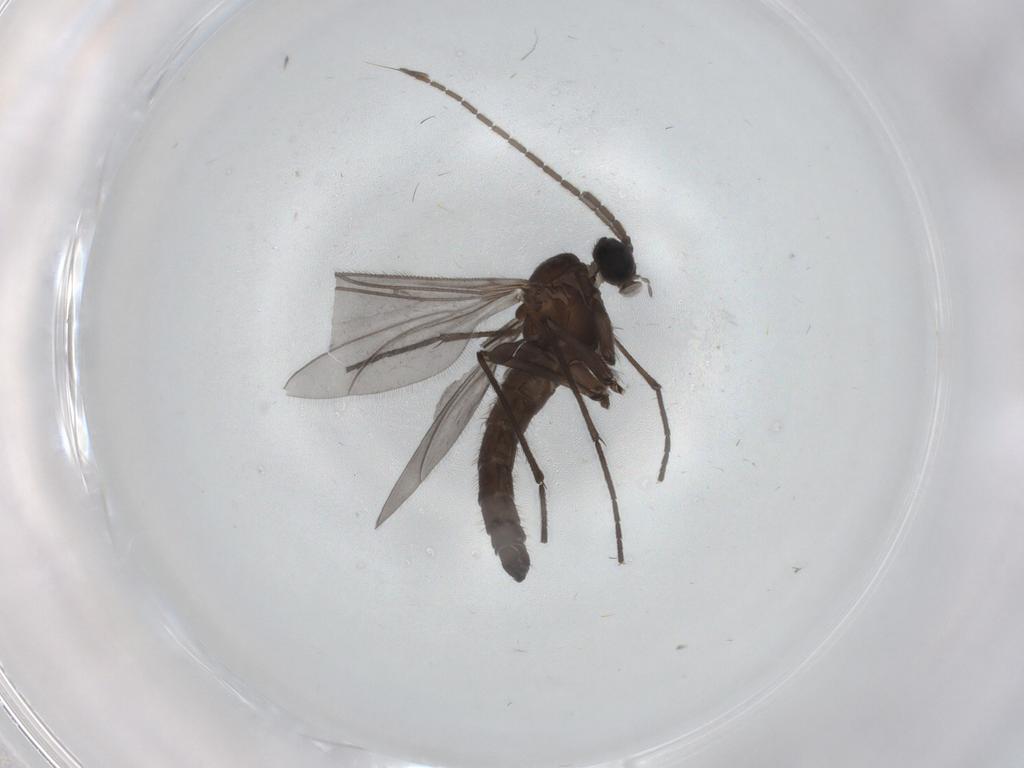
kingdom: Animalia
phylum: Arthropoda
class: Insecta
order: Diptera
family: Sciaridae
